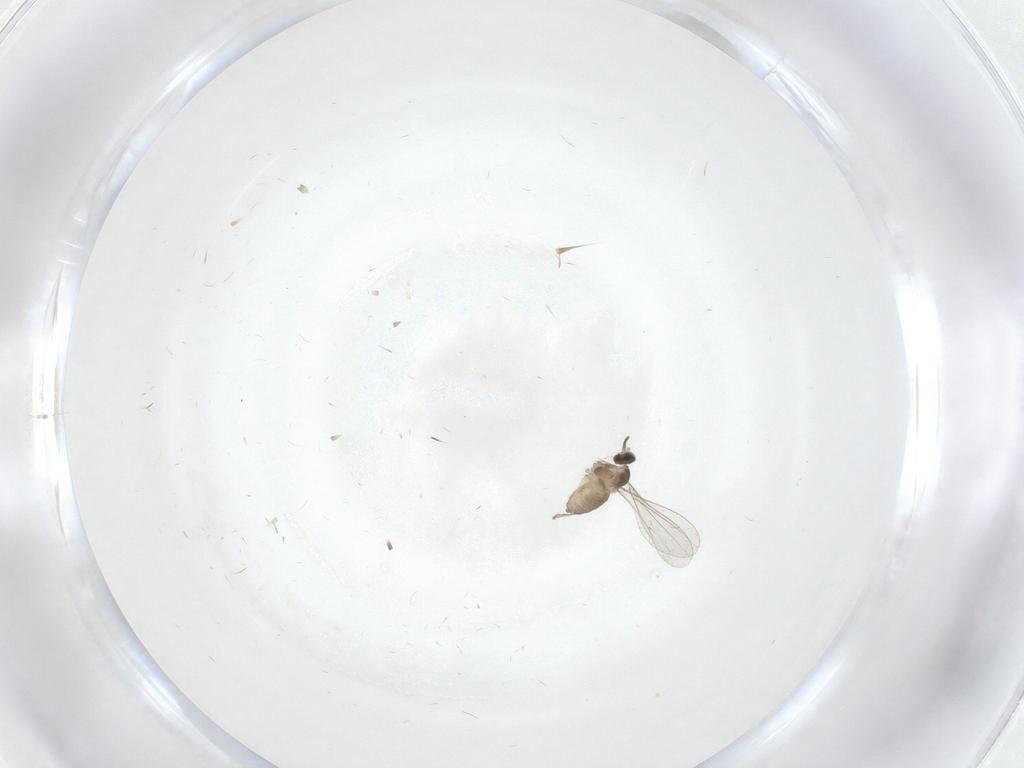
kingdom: Animalia
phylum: Arthropoda
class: Insecta
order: Diptera
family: Cecidomyiidae
